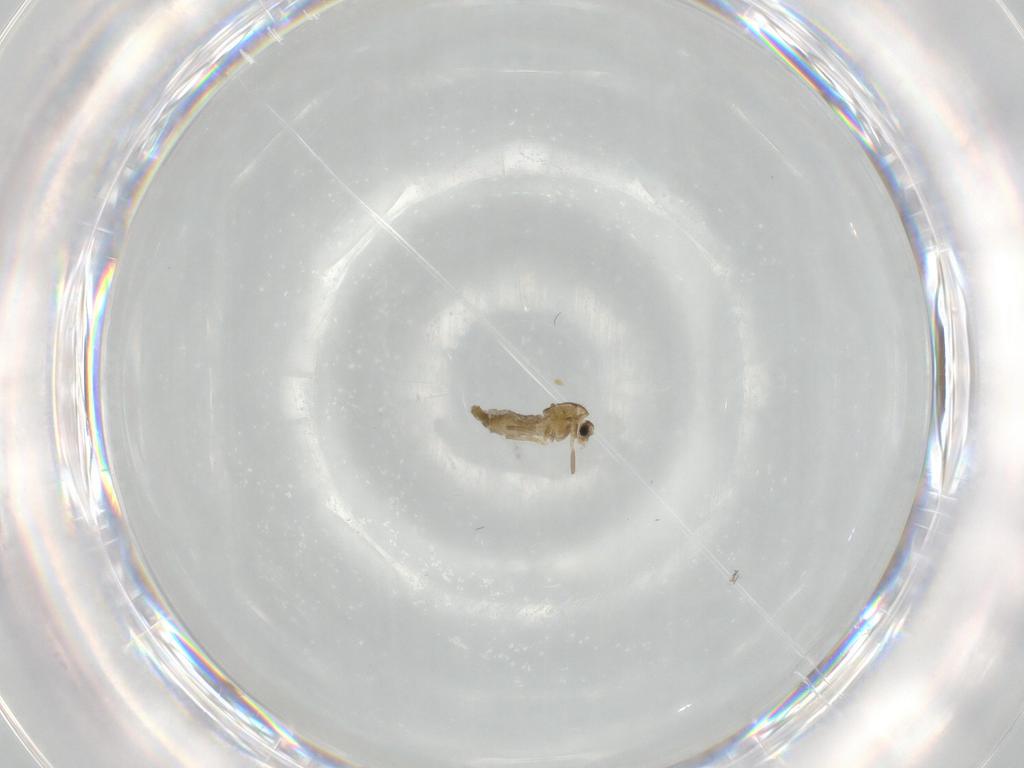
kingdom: Animalia
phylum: Arthropoda
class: Insecta
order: Diptera
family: Chironomidae
